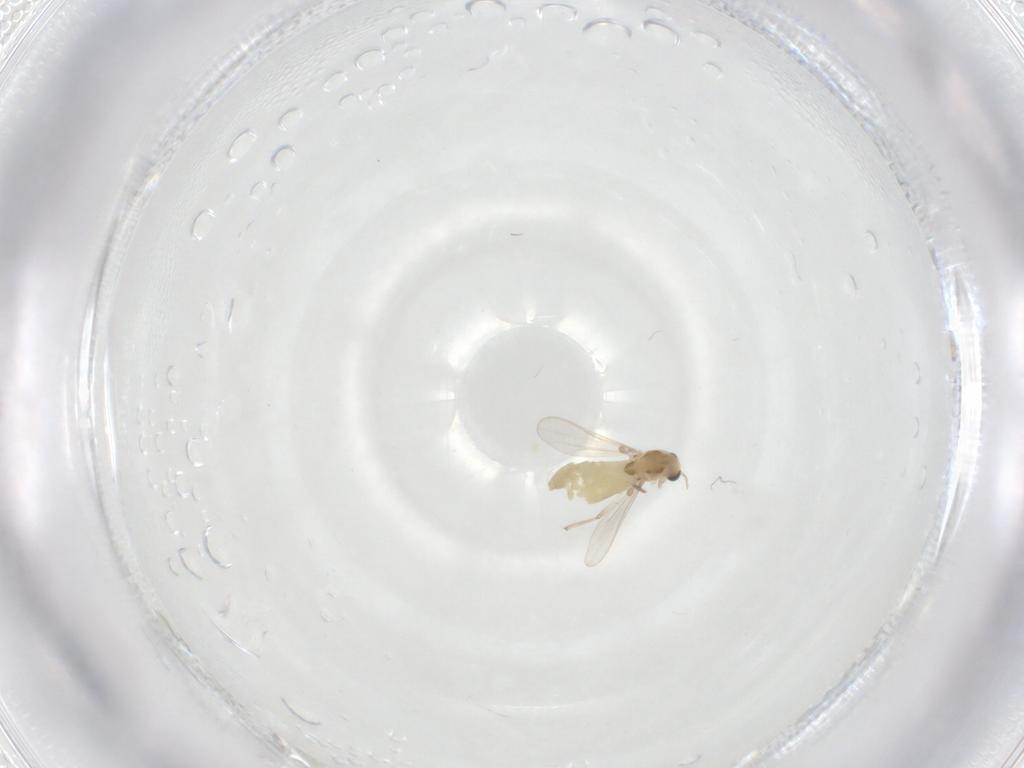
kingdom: Animalia
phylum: Arthropoda
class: Insecta
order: Diptera
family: Chironomidae
